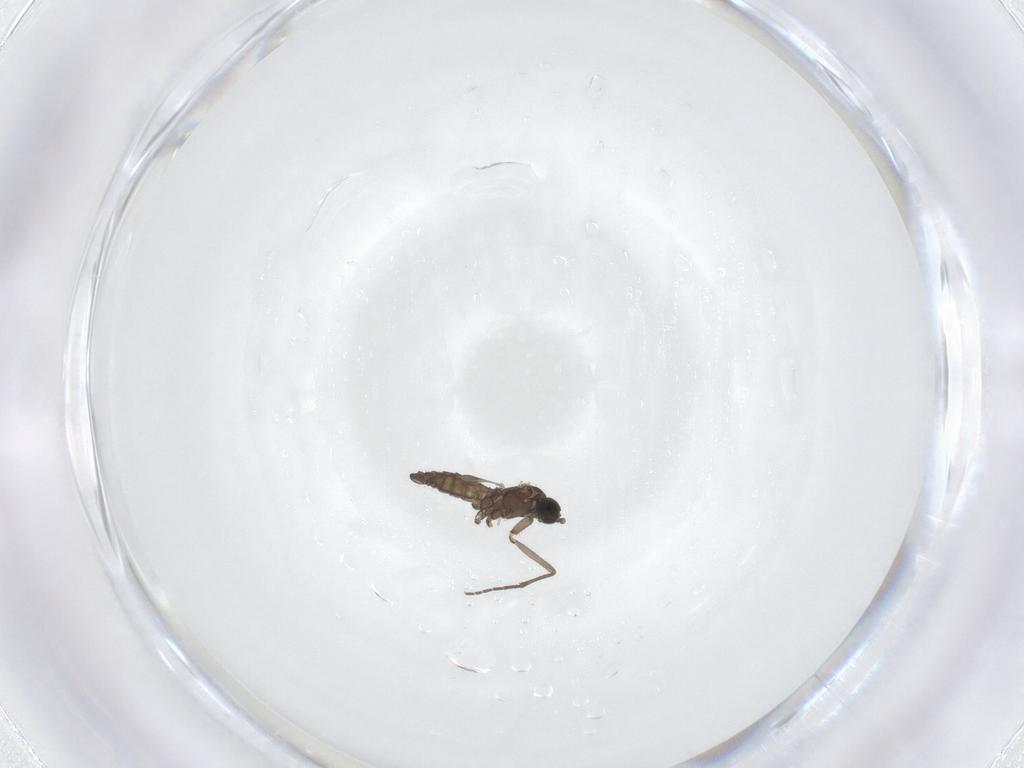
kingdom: Animalia
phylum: Arthropoda
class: Insecta
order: Diptera
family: Sciaridae
